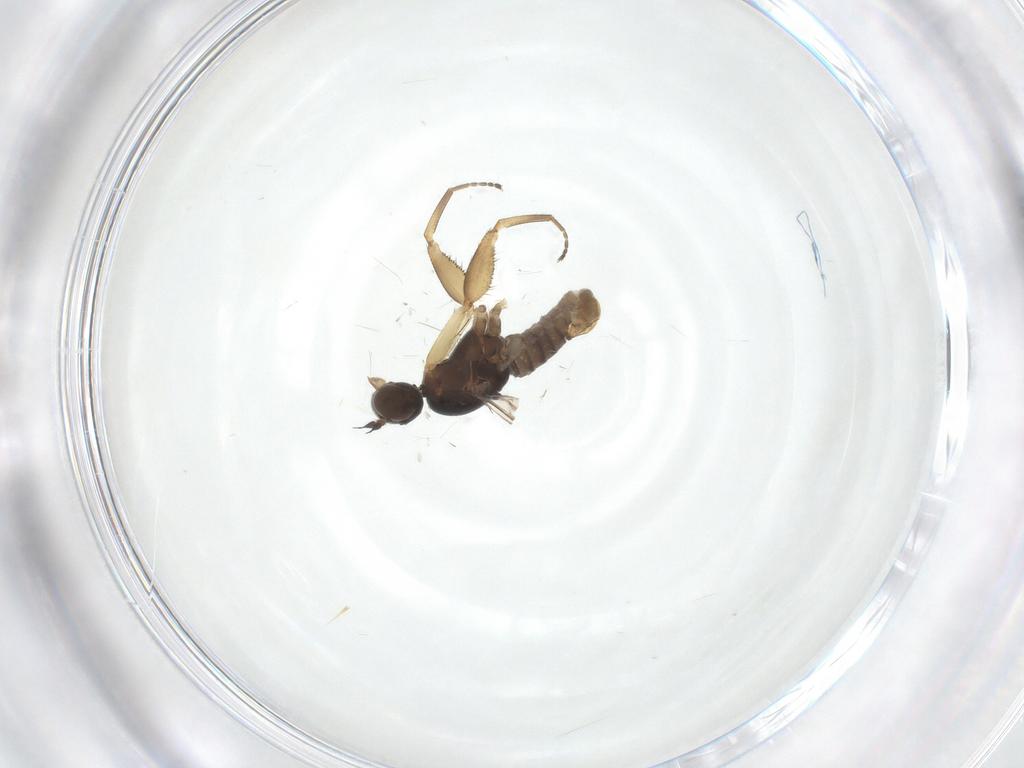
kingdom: Animalia
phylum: Arthropoda
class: Insecta
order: Diptera
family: Empididae
